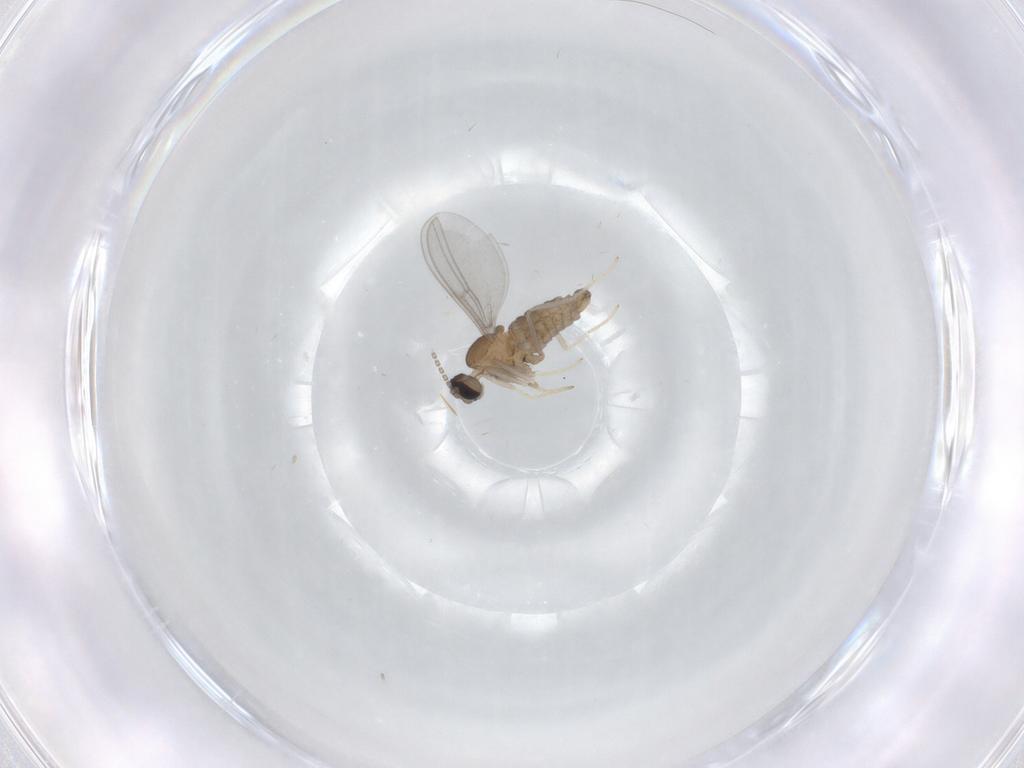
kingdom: Animalia
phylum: Arthropoda
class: Insecta
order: Diptera
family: Cecidomyiidae
